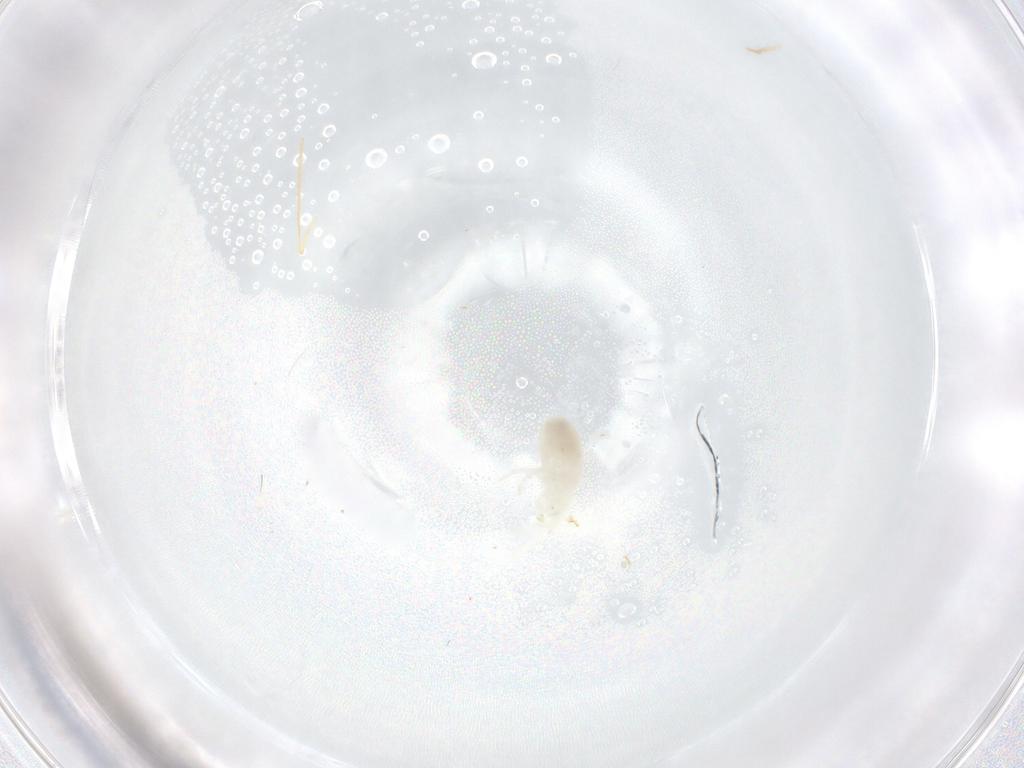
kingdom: Animalia
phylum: Arthropoda
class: Arachnida
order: Trombidiformes
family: Rhagidiidae
